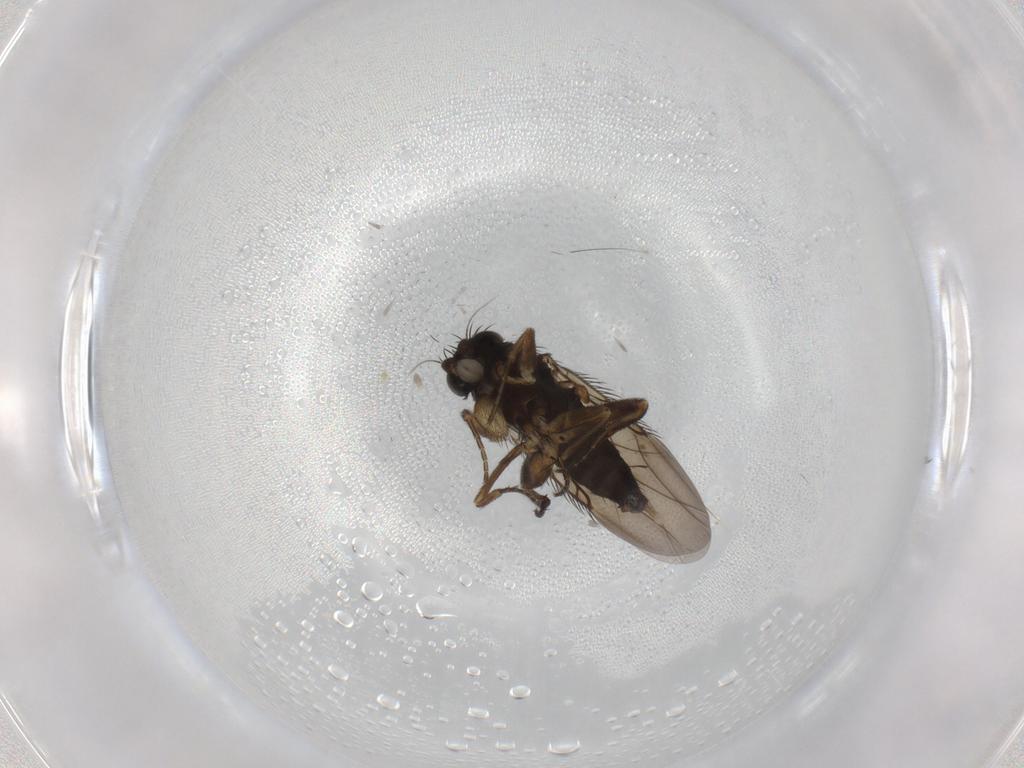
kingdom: Animalia
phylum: Arthropoda
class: Insecta
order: Diptera
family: Phoridae
